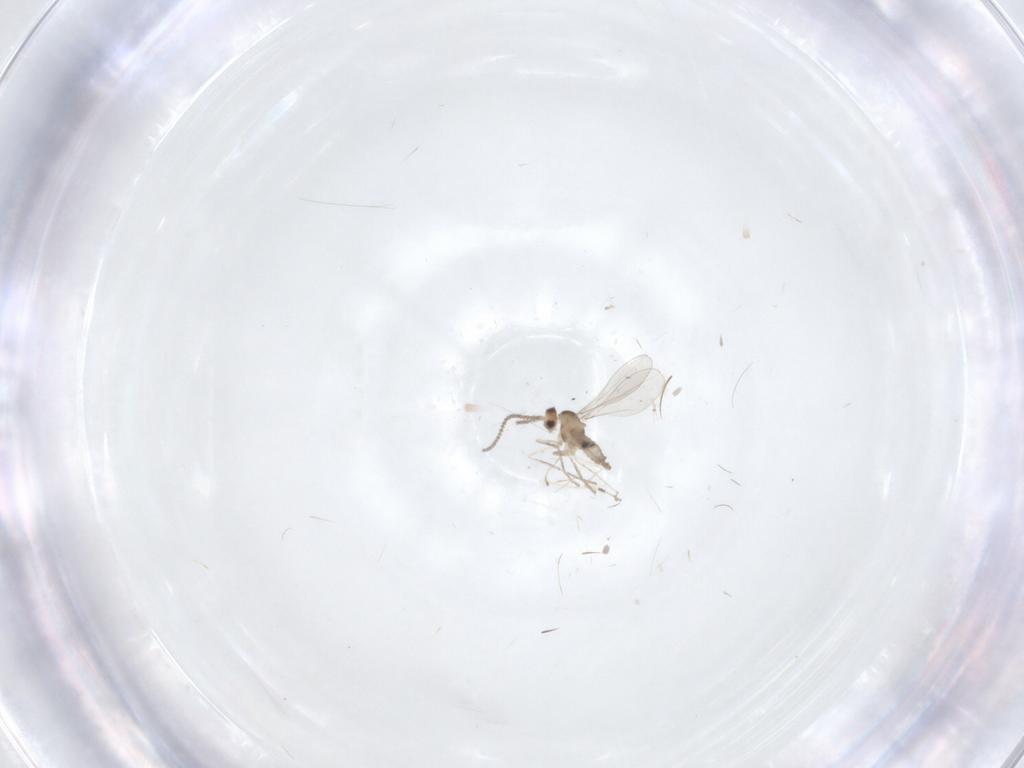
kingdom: Animalia
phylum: Arthropoda
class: Insecta
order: Diptera
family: Cecidomyiidae
